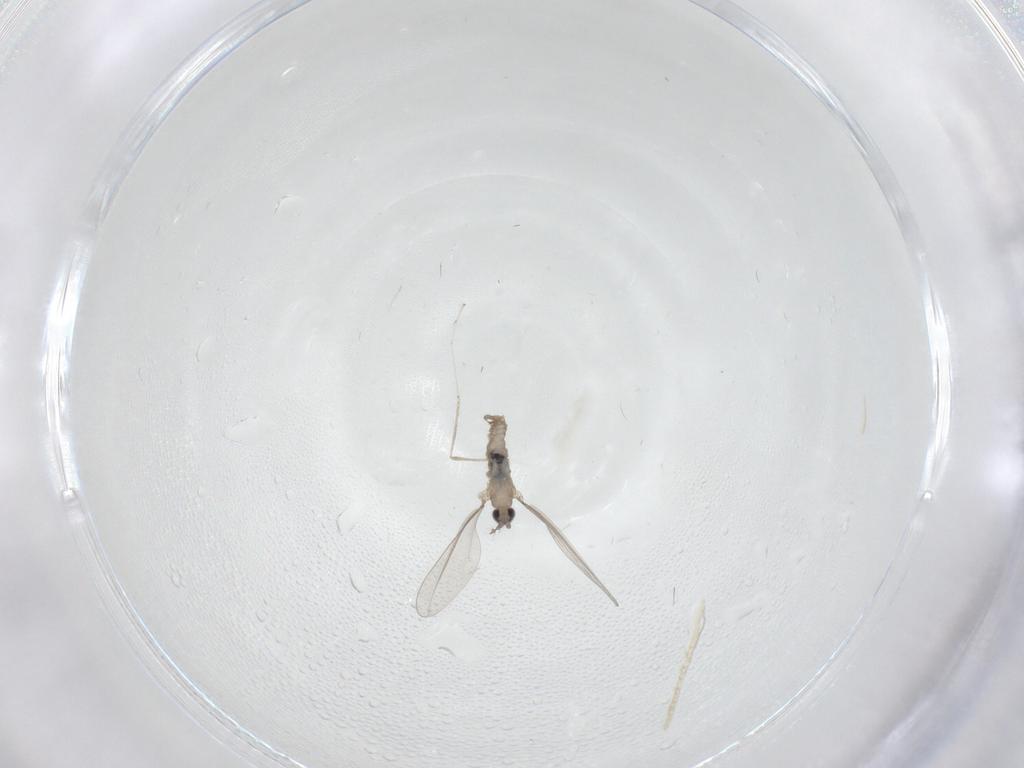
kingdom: Animalia
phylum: Arthropoda
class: Insecta
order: Diptera
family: Cecidomyiidae
